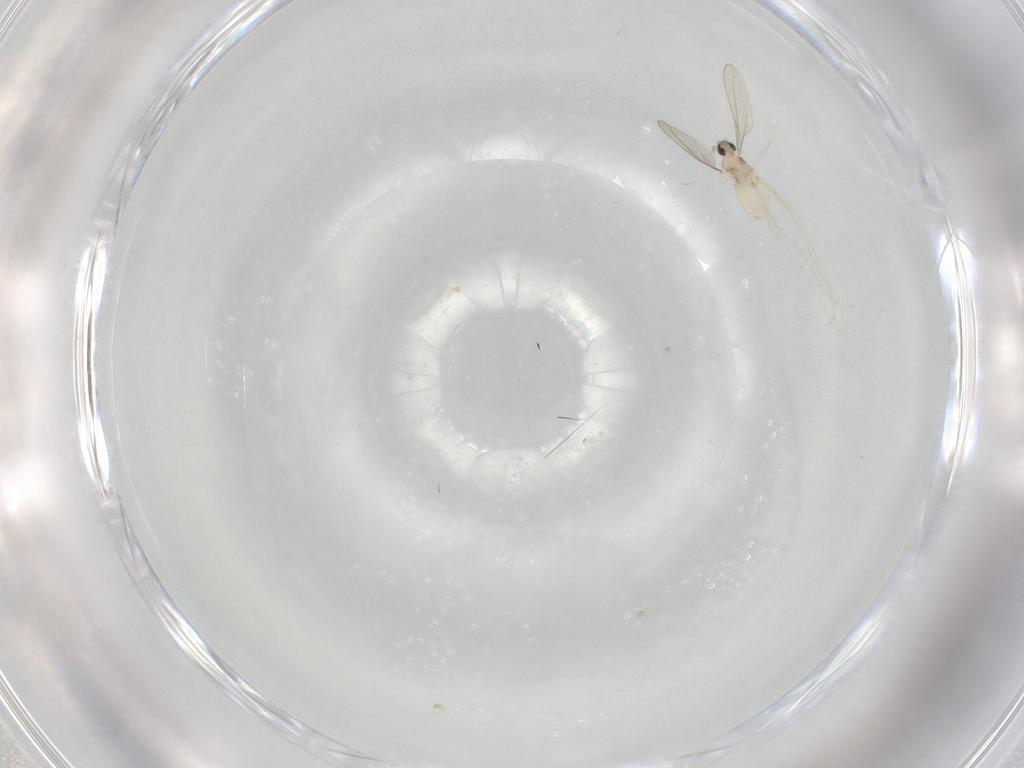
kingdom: Animalia
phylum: Arthropoda
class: Insecta
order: Diptera
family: Cecidomyiidae
